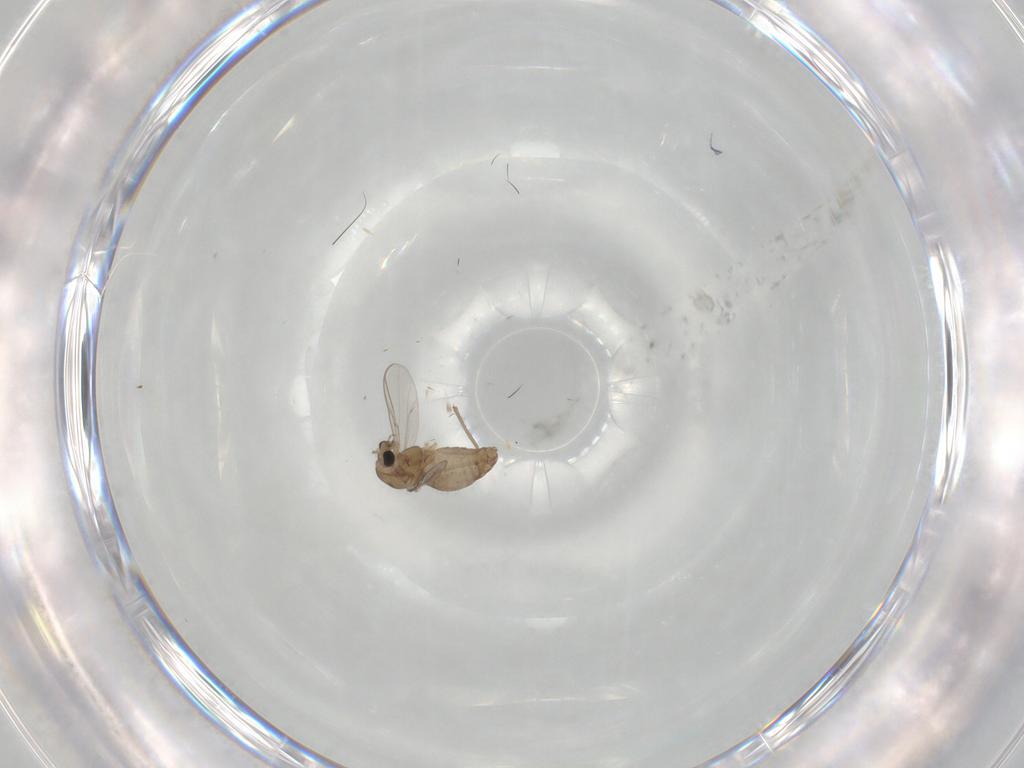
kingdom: Animalia
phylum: Arthropoda
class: Insecta
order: Diptera
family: Chironomidae
